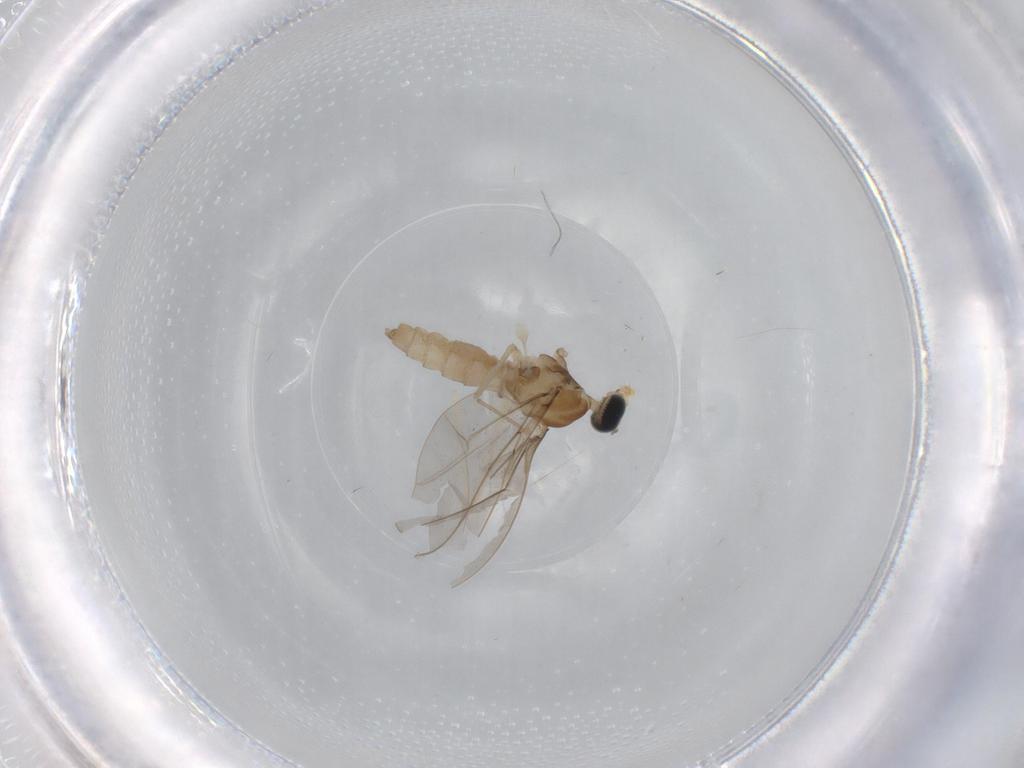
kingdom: Animalia
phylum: Arthropoda
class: Insecta
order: Diptera
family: Cecidomyiidae
